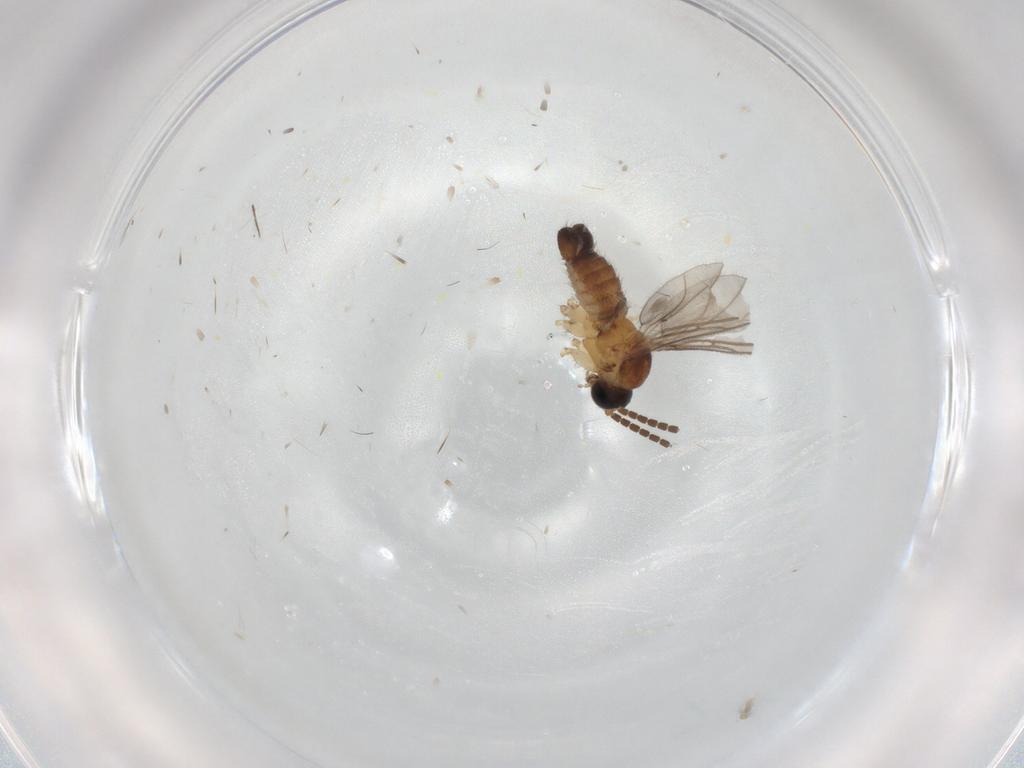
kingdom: Animalia
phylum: Arthropoda
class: Insecta
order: Diptera
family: Sciaridae
